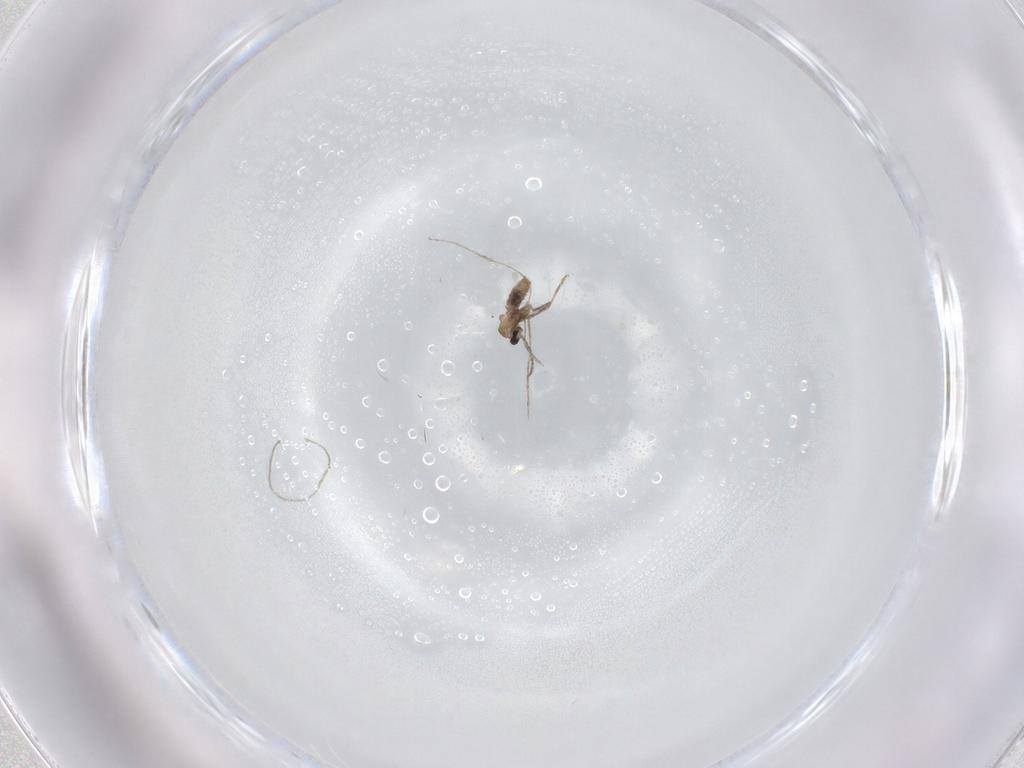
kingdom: Animalia
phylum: Arthropoda
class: Insecta
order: Diptera
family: Cecidomyiidae
